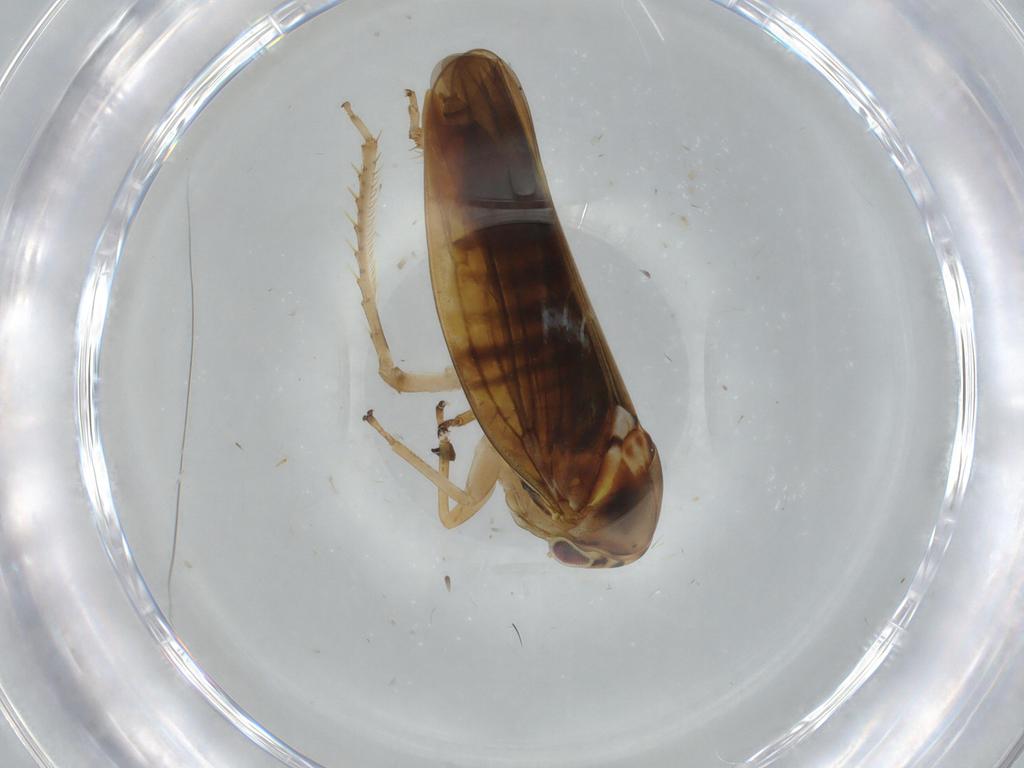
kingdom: Animalia
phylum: Arthropoda
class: Insecta
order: Hemiptera
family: Cicadellidae
